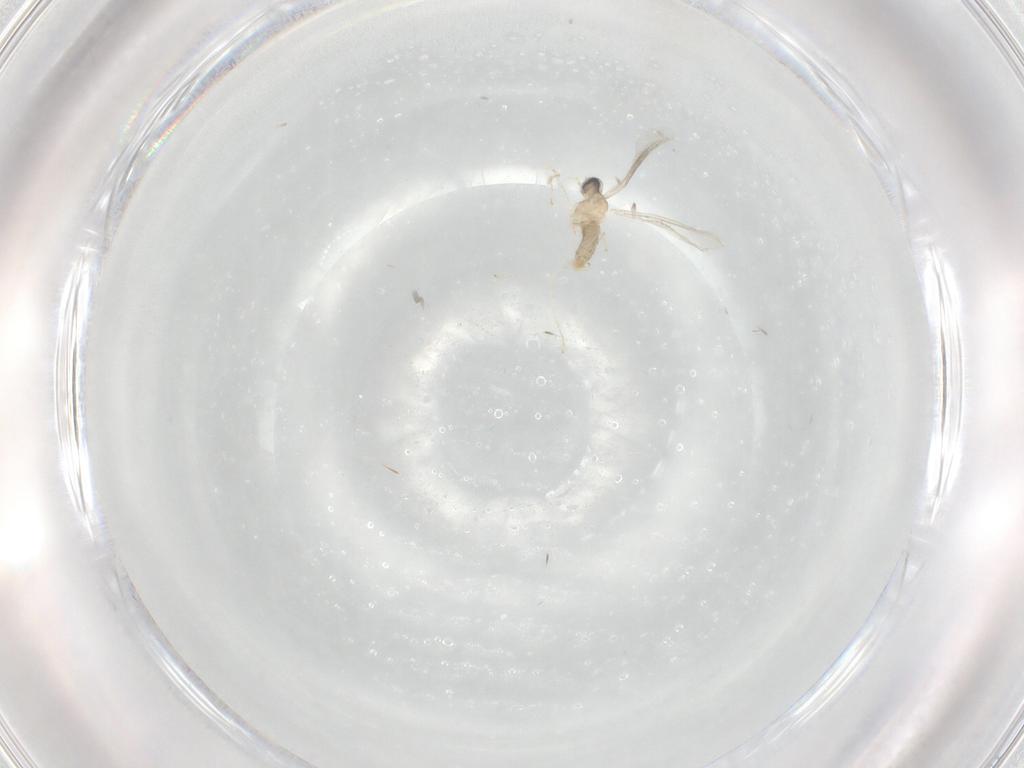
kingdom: Animalia
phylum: Arthropoda
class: Insecta
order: Diptera
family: Cecidomyiidae
